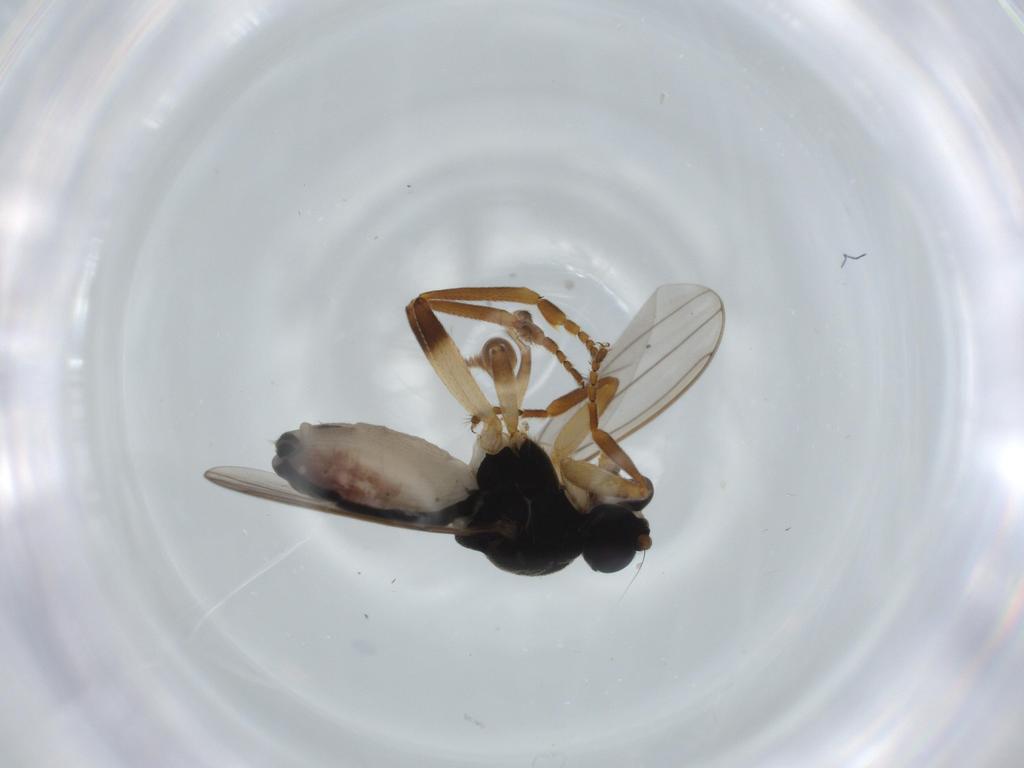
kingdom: Animalia
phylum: Arthropoda
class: Insecta
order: Diptera
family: Sphaeroceridae
